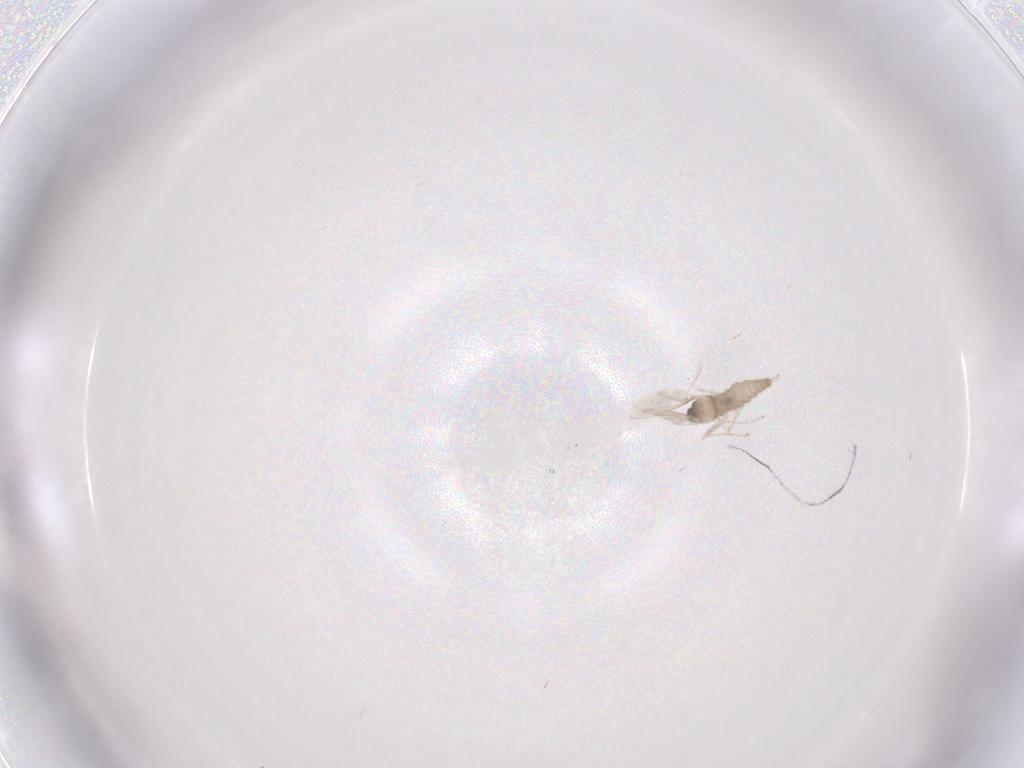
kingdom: Animalia
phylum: Arthropoda
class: Insecta
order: Diptera
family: Cecidomyiidae
